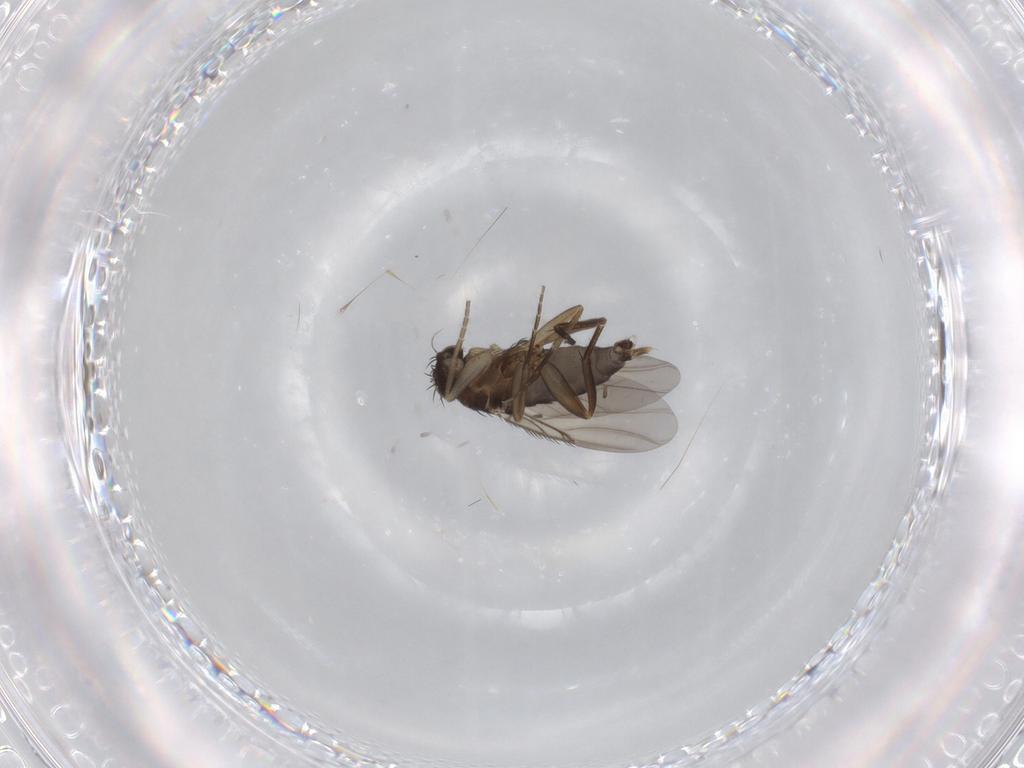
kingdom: Animalia
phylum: Arthropoda
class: Insecta
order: Diptera
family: Phoridae
